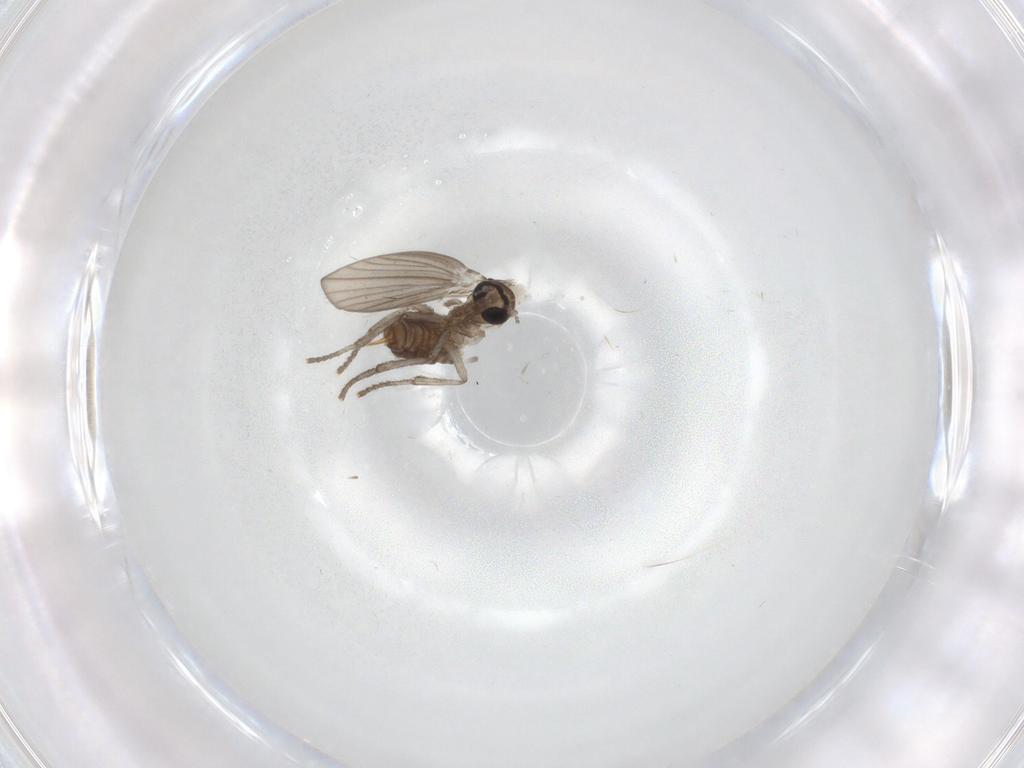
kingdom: Animalia
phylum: Arthropoda
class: Insecta
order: Diptera
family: Psychodidae
